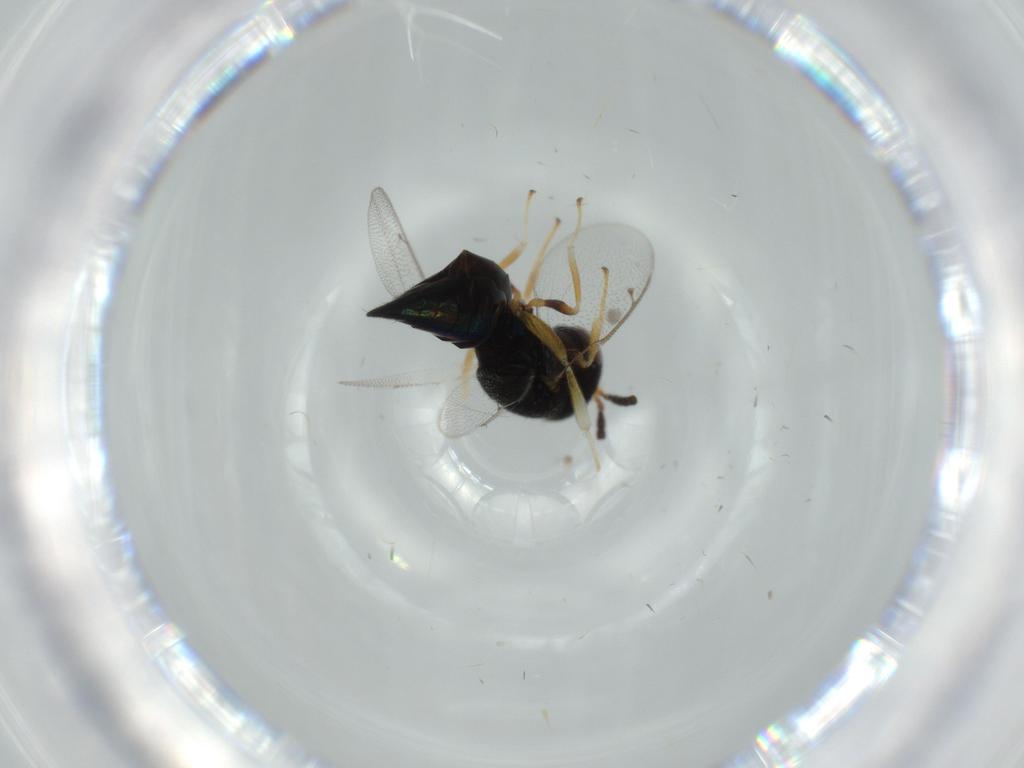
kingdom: Animalia
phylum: Arthropoda
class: Insecta
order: Hymenoptera
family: Pteromalidae
